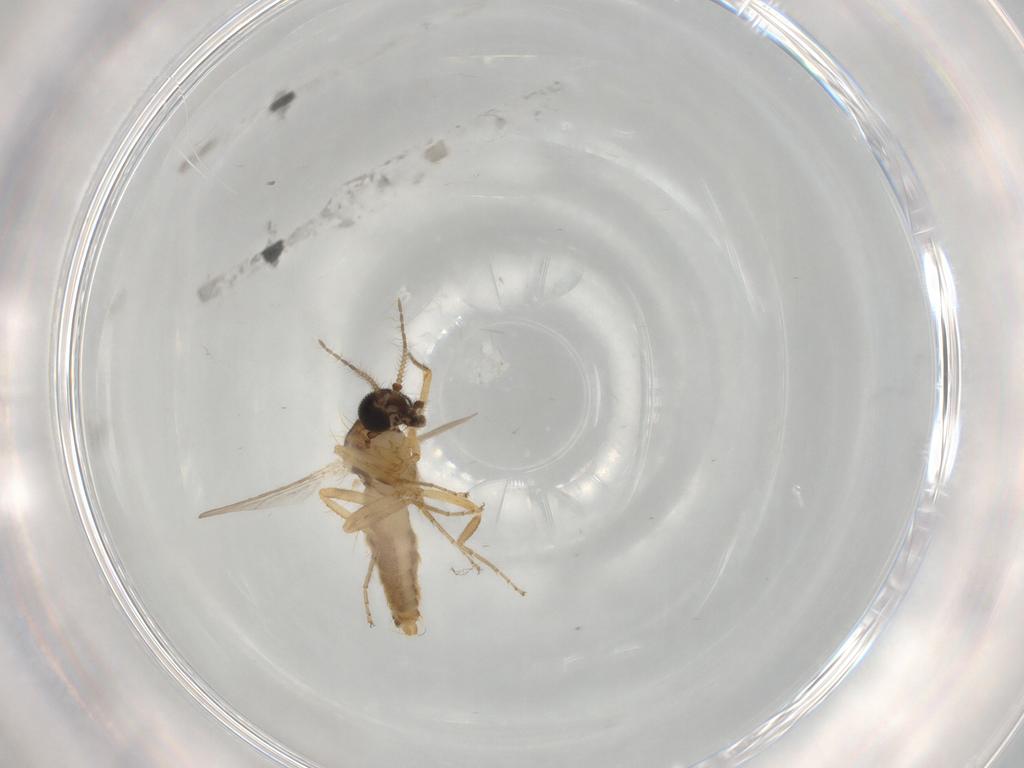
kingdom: Animalia
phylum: Arthropoda
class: Insecta
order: Diptera
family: Ceratopogonidae
